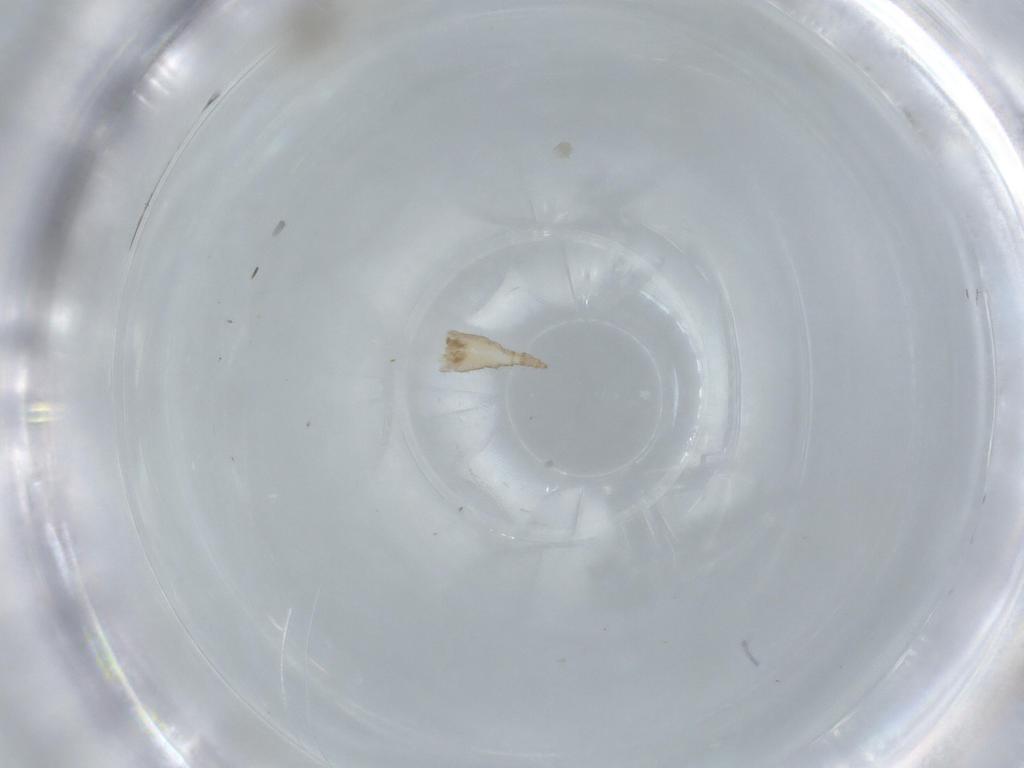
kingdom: Animalia
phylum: Arthropoda
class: Insecta
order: Diptera
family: Cecidomyiidae
